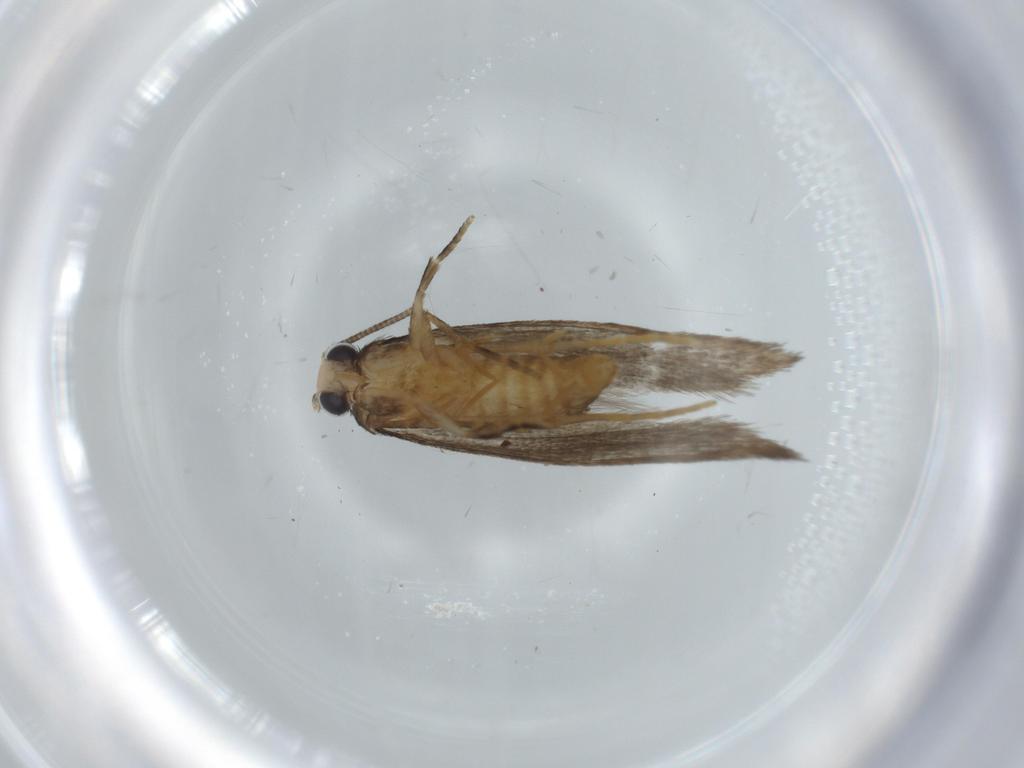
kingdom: Animalia
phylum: Arthropoda
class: Insecta
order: Lepidoptera
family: Tineidae
